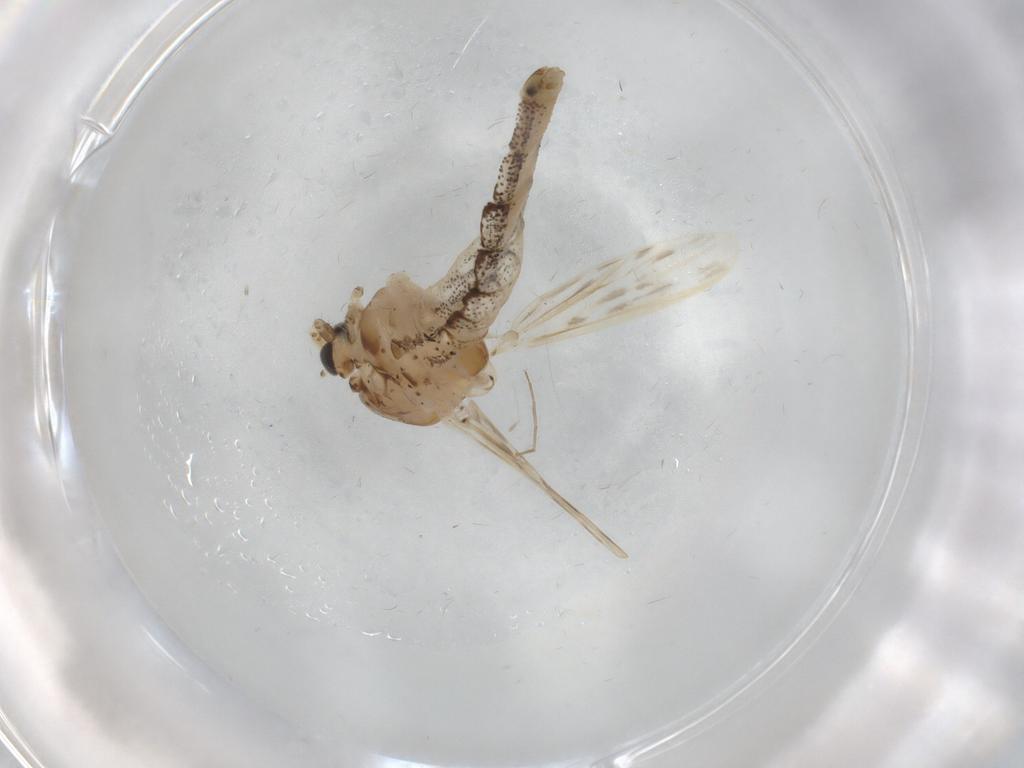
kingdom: Animalia
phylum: Arthropoda
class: Insecta
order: Diptera
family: Chaoboridae
